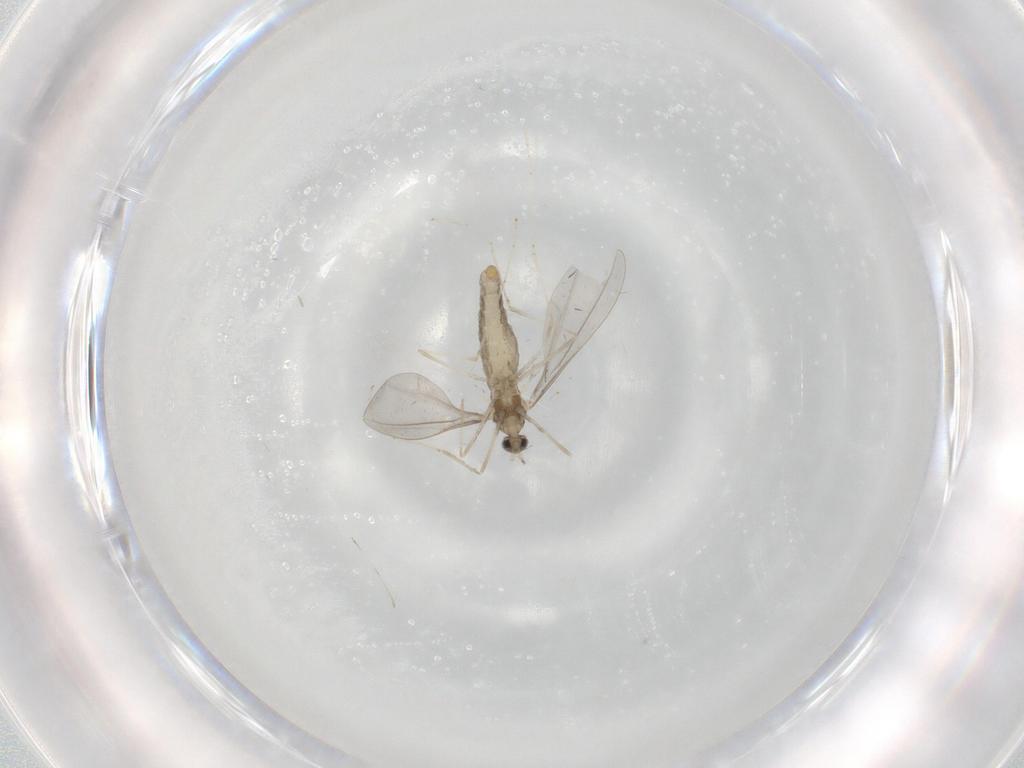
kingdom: Animalia
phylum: Arthropoda
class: Insecta
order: Diptera
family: Cecidomyiidae
